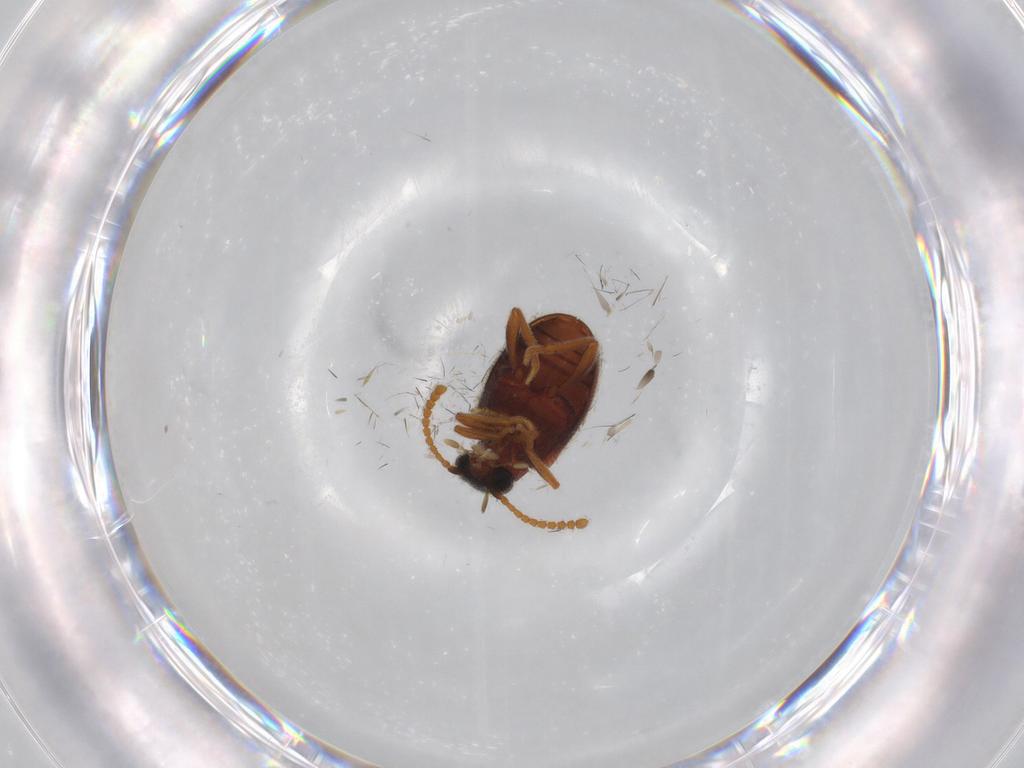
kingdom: Animalia
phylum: Arthropoda
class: Insecta
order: Coleoptera
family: Aderidae
